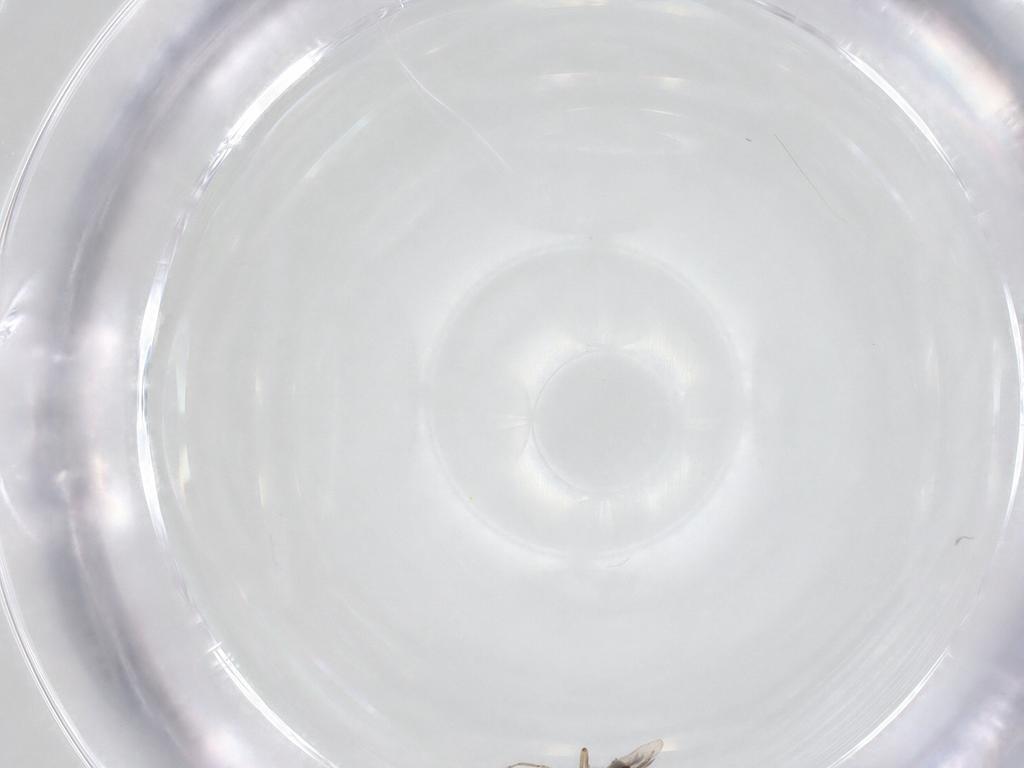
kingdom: Animalia
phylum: Arthropoda
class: Insecta
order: Diptera
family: Ceratopogonidae
